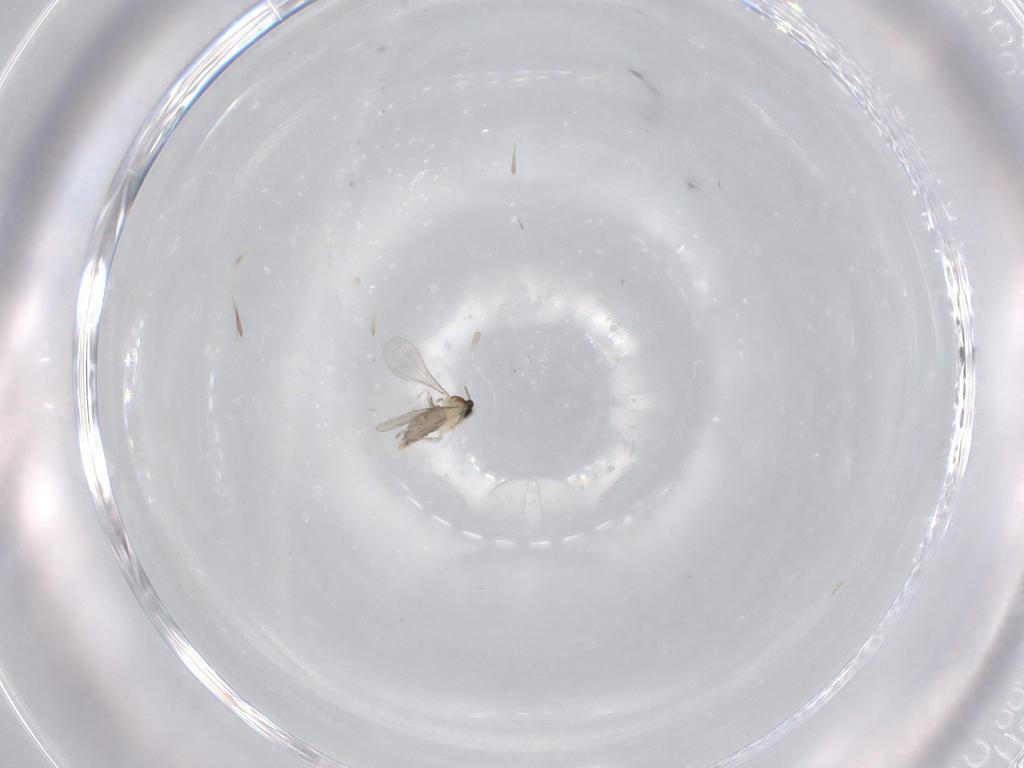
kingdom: Animalia
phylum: Arthropoda
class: Insecta
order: Diptera
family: Cecidomyiidae
